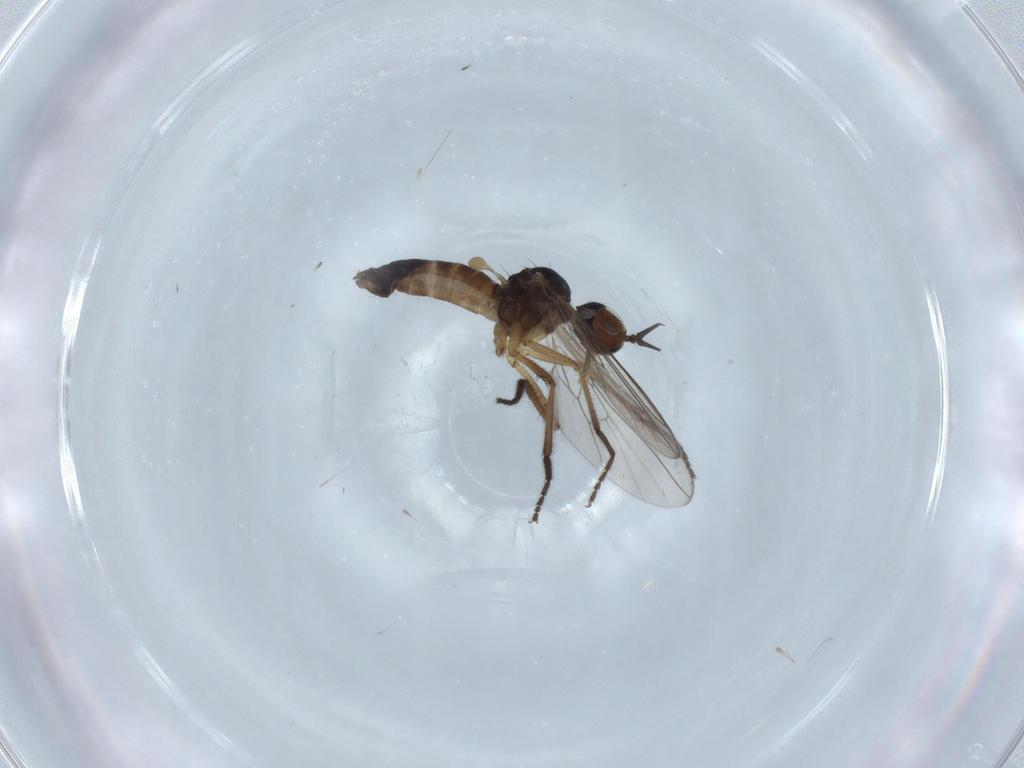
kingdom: Animalia
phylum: Arthropoda
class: Insecta
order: Diptera
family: Empididae
